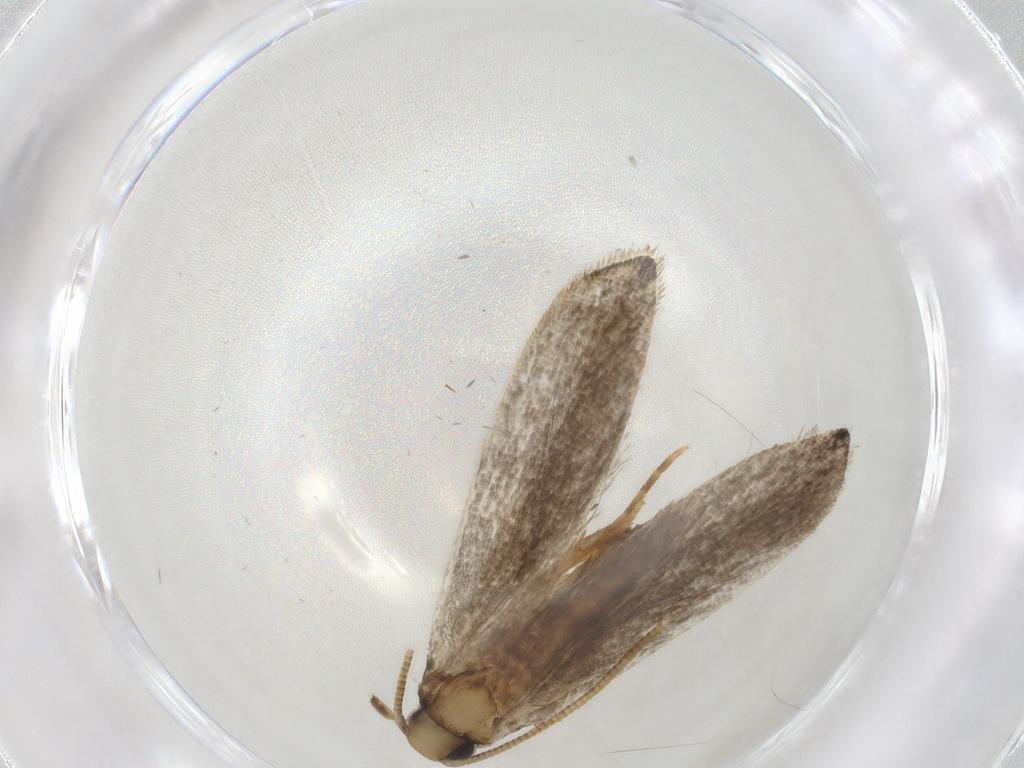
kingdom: Animalia
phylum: Arthropoda
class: Insecta
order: Lepidoptera
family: Tineidae
